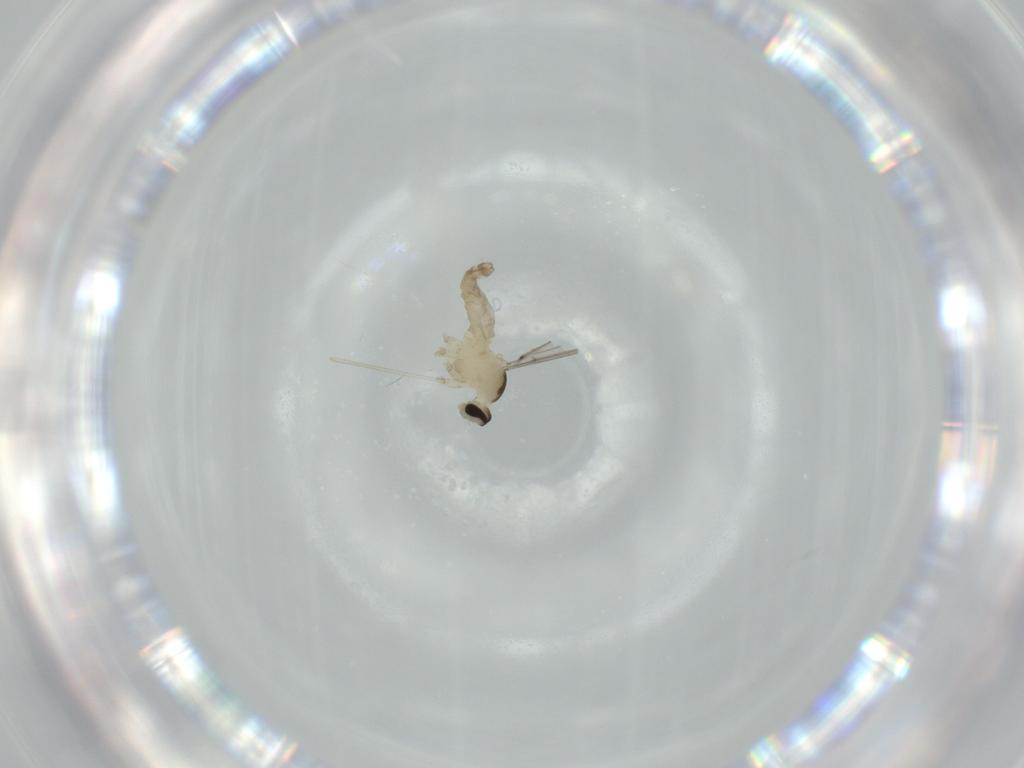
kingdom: Animalia
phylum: Arthropoda
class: Insecta
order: Diptera
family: Cecidomyiidae
